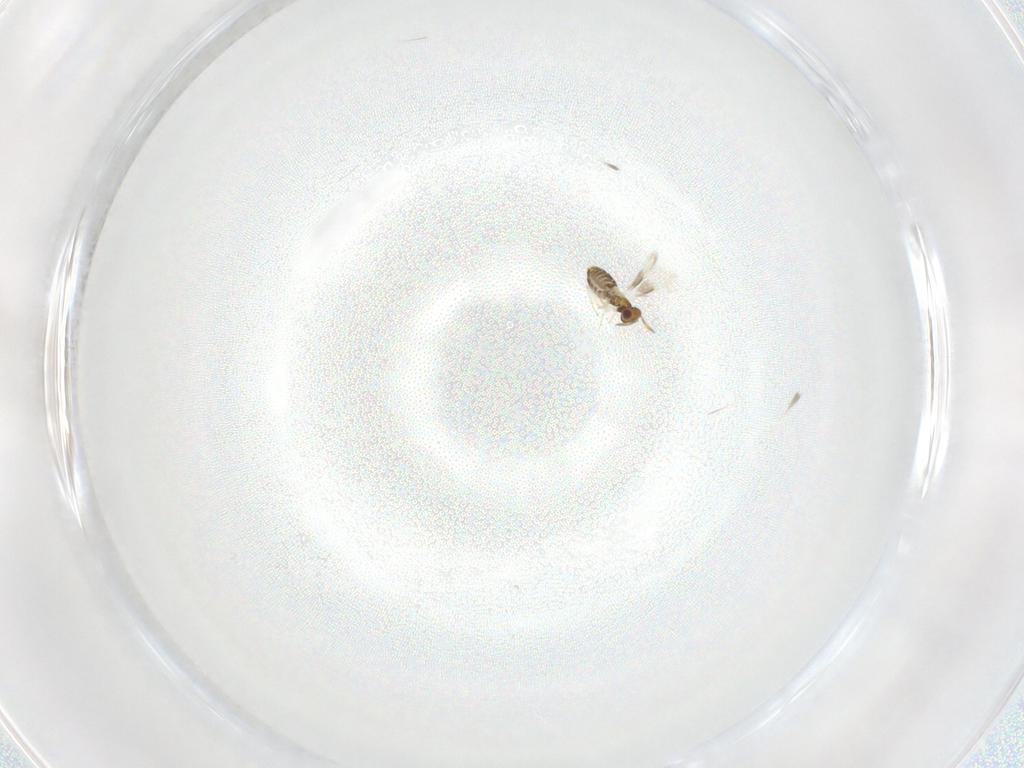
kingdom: Animalia
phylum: Arthropoda
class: Insecta
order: Hymenoptera
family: Aphelinidae
